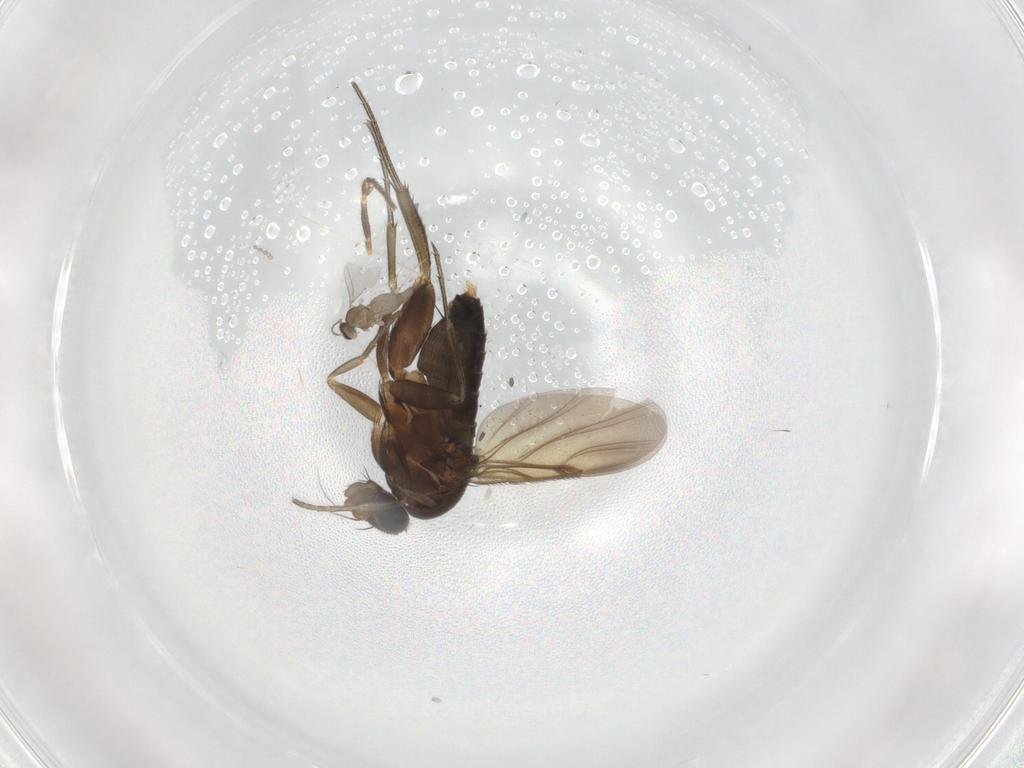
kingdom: Animalia
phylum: Arthropoda
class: Insecta
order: Diptera
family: Phoridae
